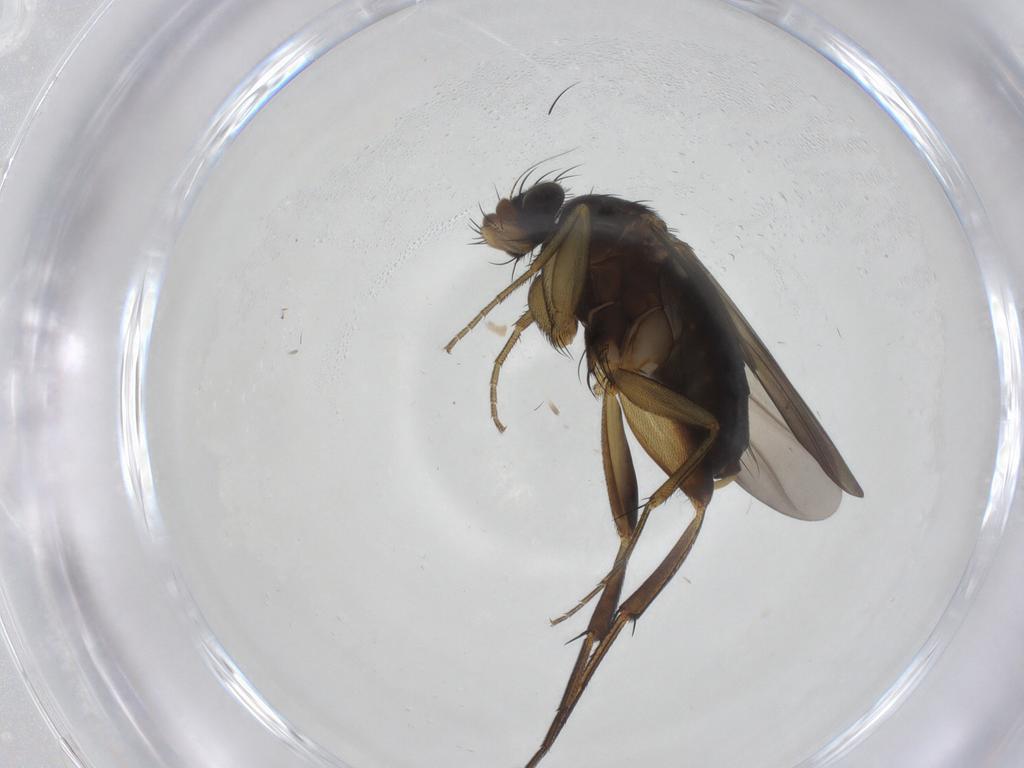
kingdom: Animalia
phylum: Arthropoda
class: Insecta
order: Diptera
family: Phoridae
